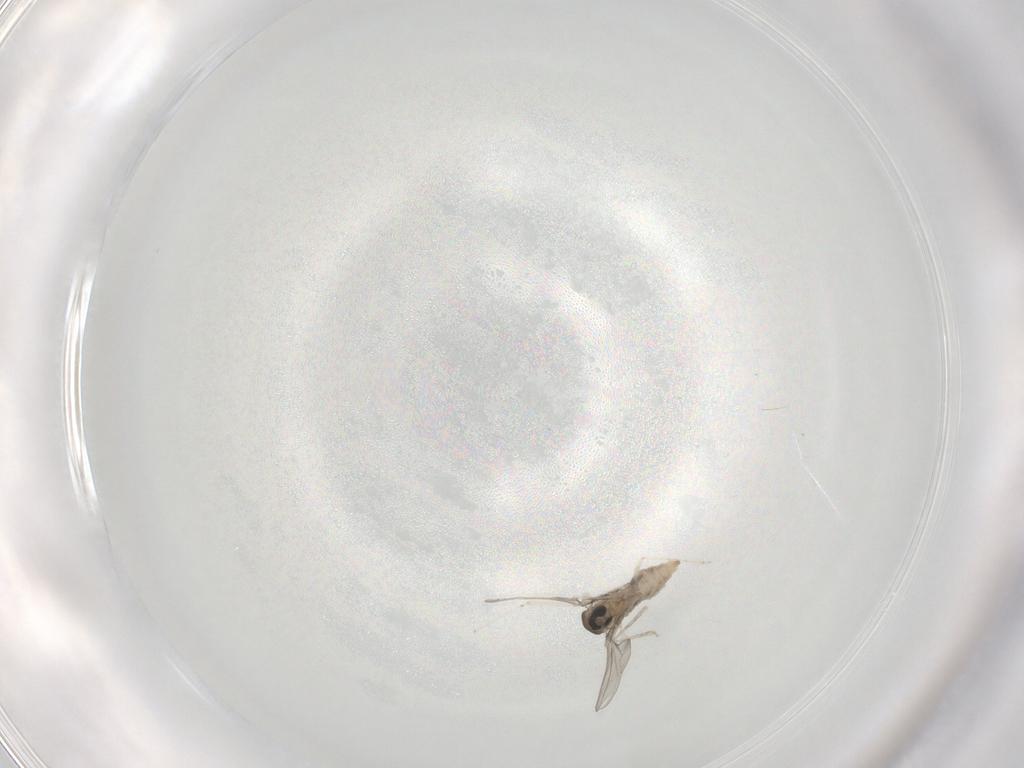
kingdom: Animalia
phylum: Arthropoda
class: Insecta
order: Diptera
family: Cecidomyiidae
